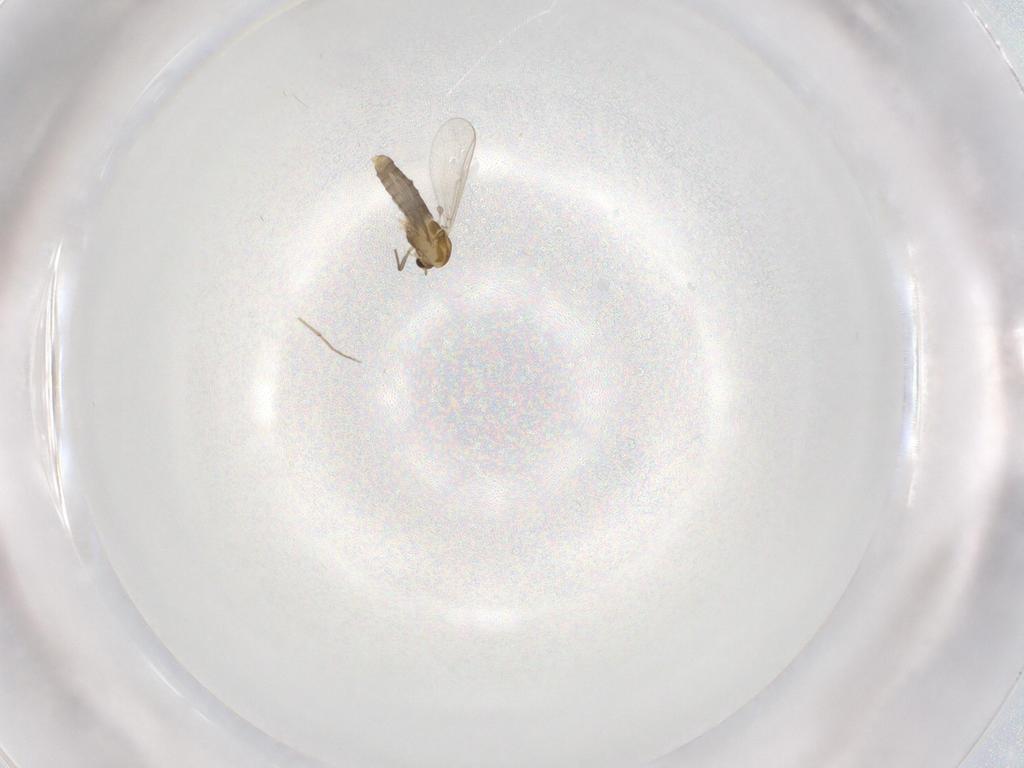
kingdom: Animalia
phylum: Arthropoda
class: Insecta
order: Diptera
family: Chironomidae
